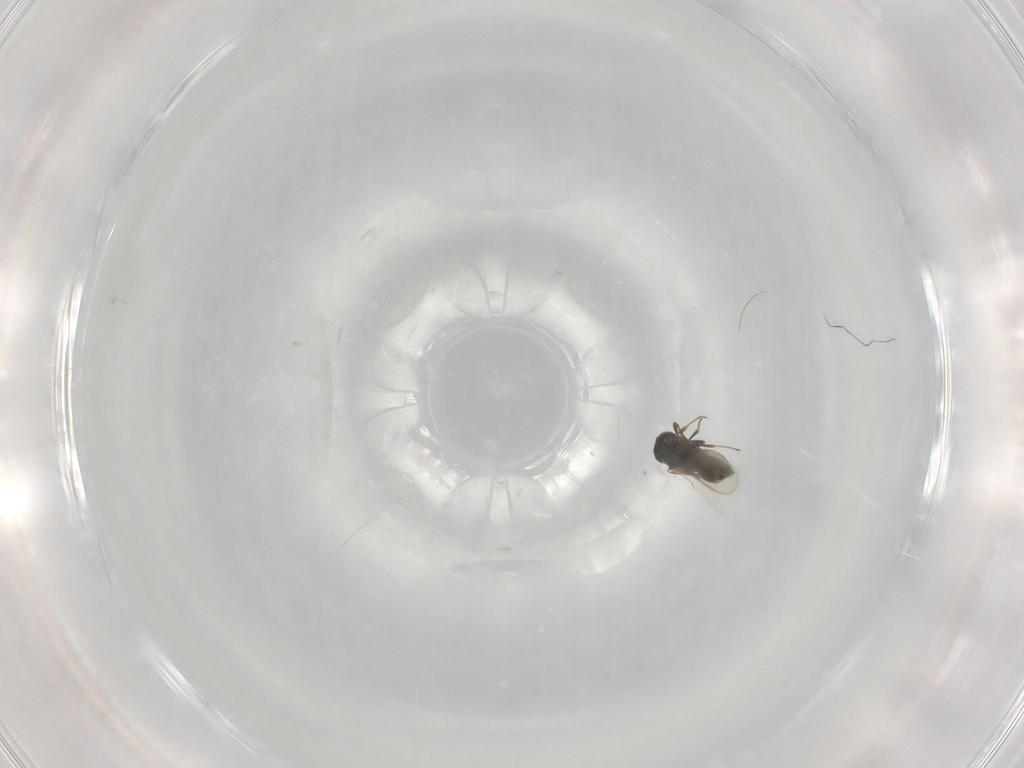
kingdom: Animalia
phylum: Arthropoda
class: Insecta
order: Hymenoptera
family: Scelionidae
